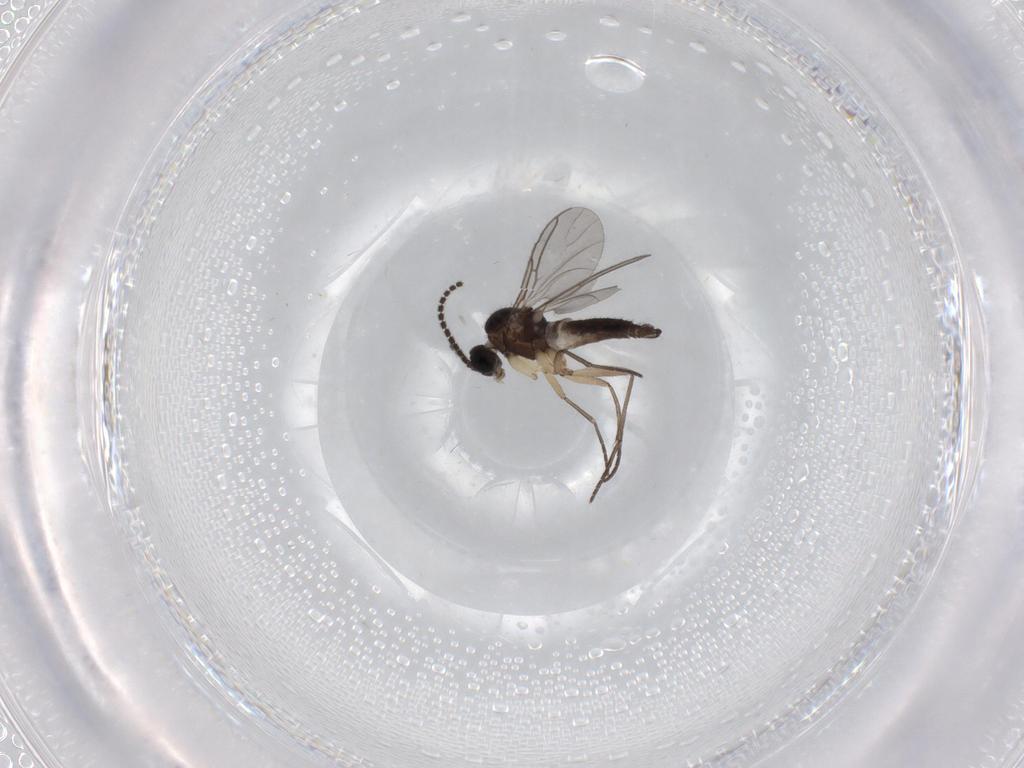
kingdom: Animalia
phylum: Arthropoda
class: Insecta
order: Diptera
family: Sciaridae
